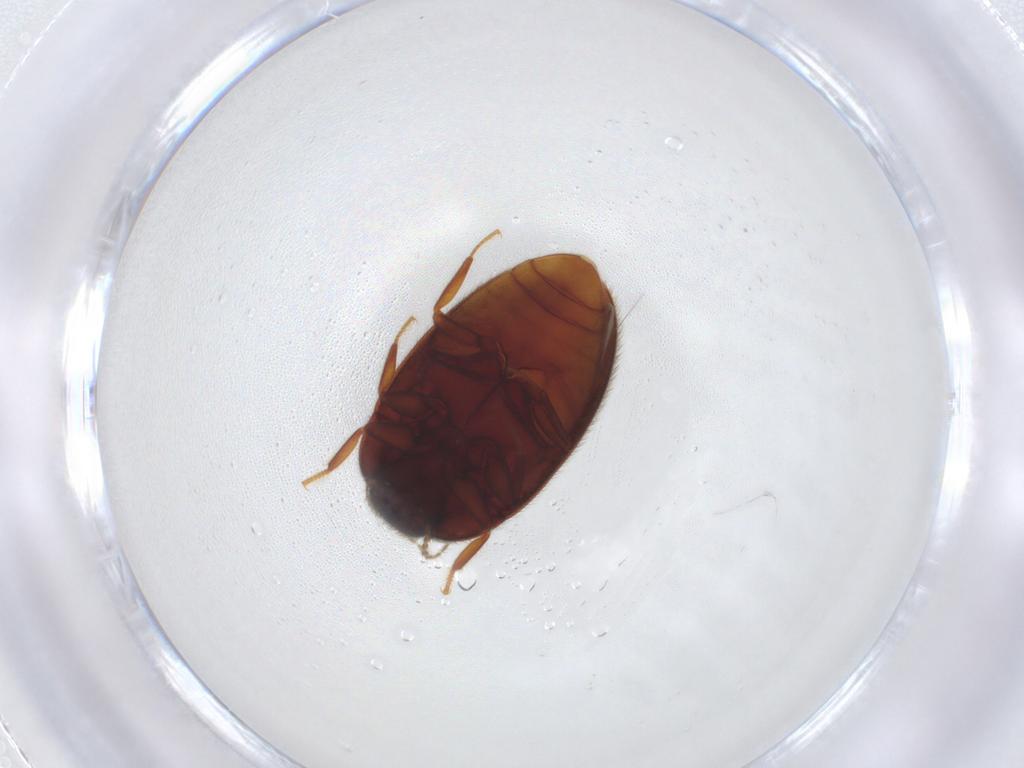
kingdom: Animalia
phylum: Arthropoda
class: Insecta
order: Coleoptera
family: Limnichidae
